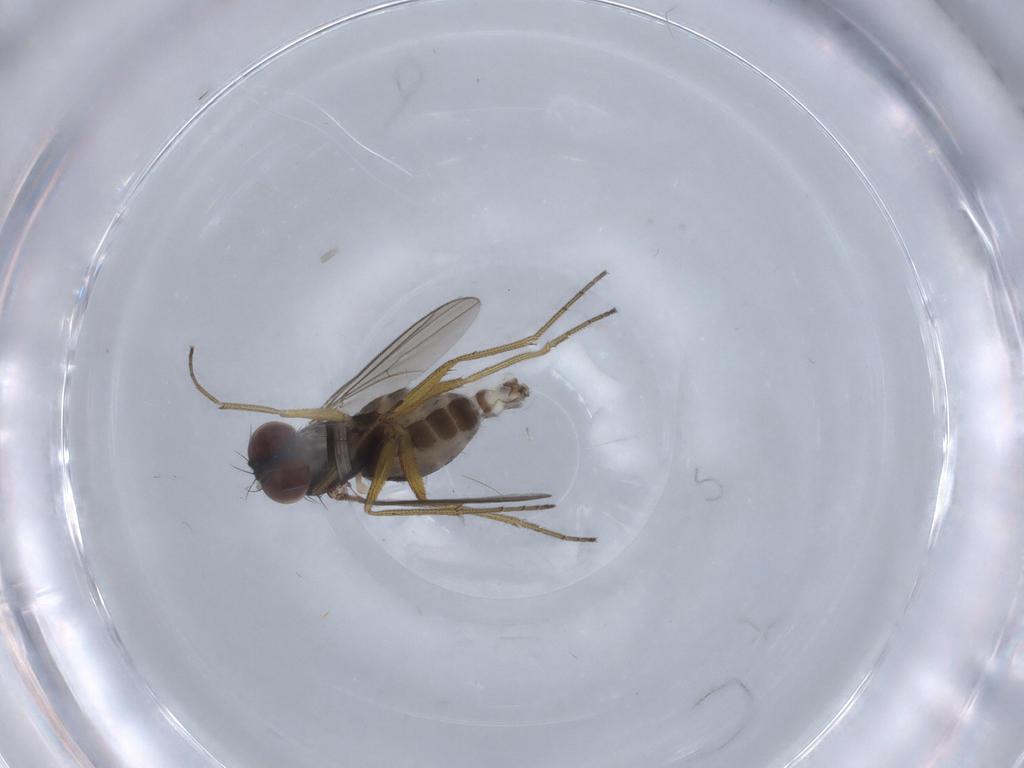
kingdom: Animalia
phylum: Arthropoda
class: Insecta
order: Diptera
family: Dolichopodidae
